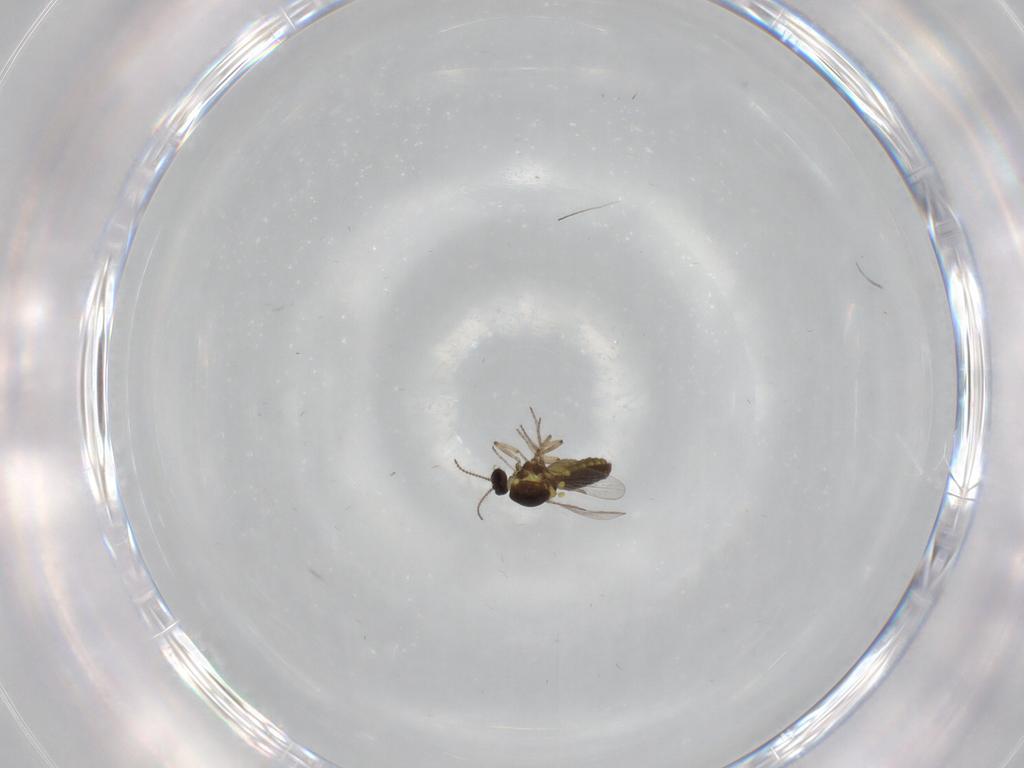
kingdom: Animalia
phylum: Arthropoda
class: Insecta
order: Diptera
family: Ceratopogonidae
